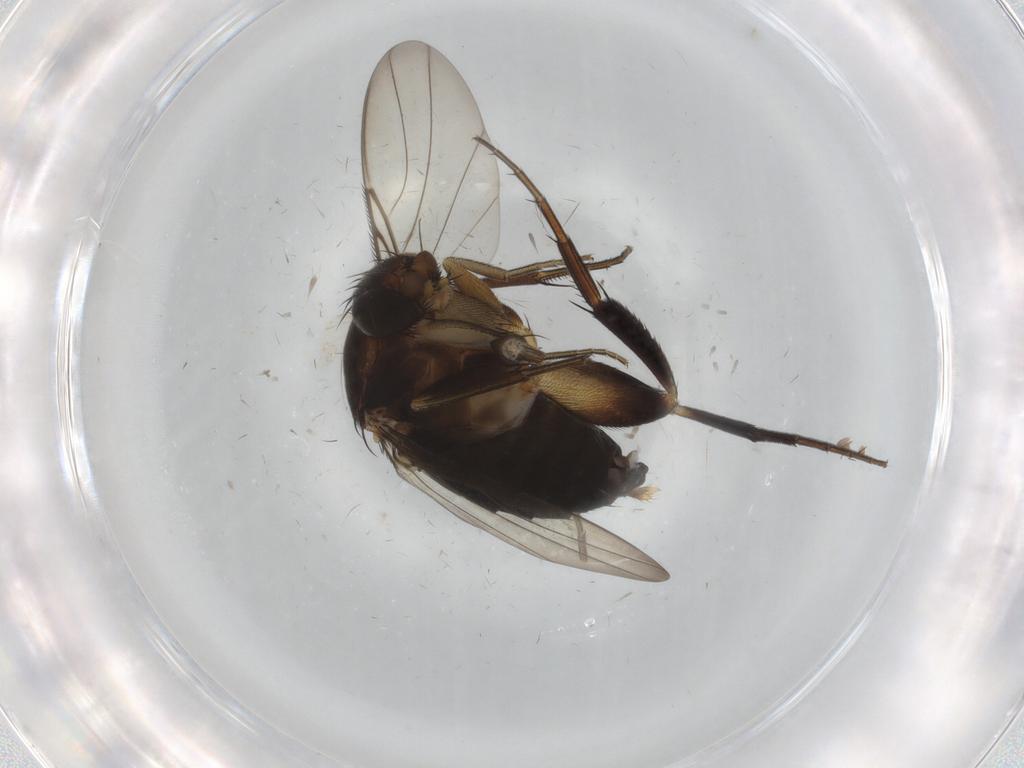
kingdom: Animalia
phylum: Arthropoda
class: Insecta
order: Diptera
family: Phoridae
